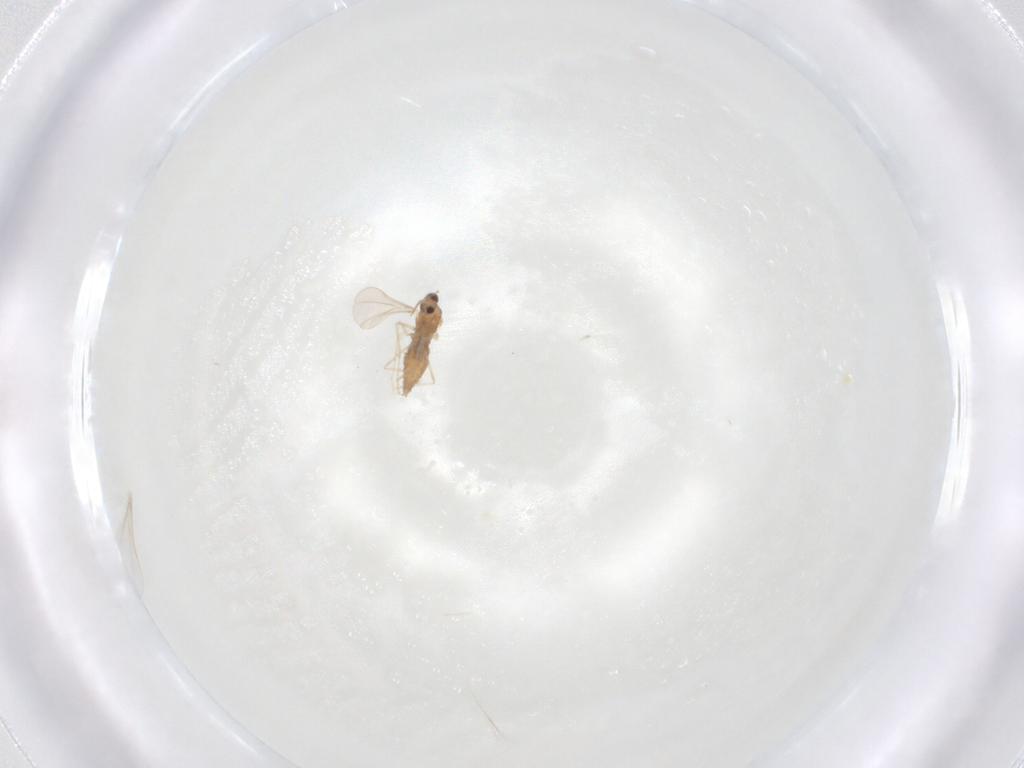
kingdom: Animalia
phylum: Arthropoda
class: Insecta
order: Diptera
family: Cecidomyiidae
